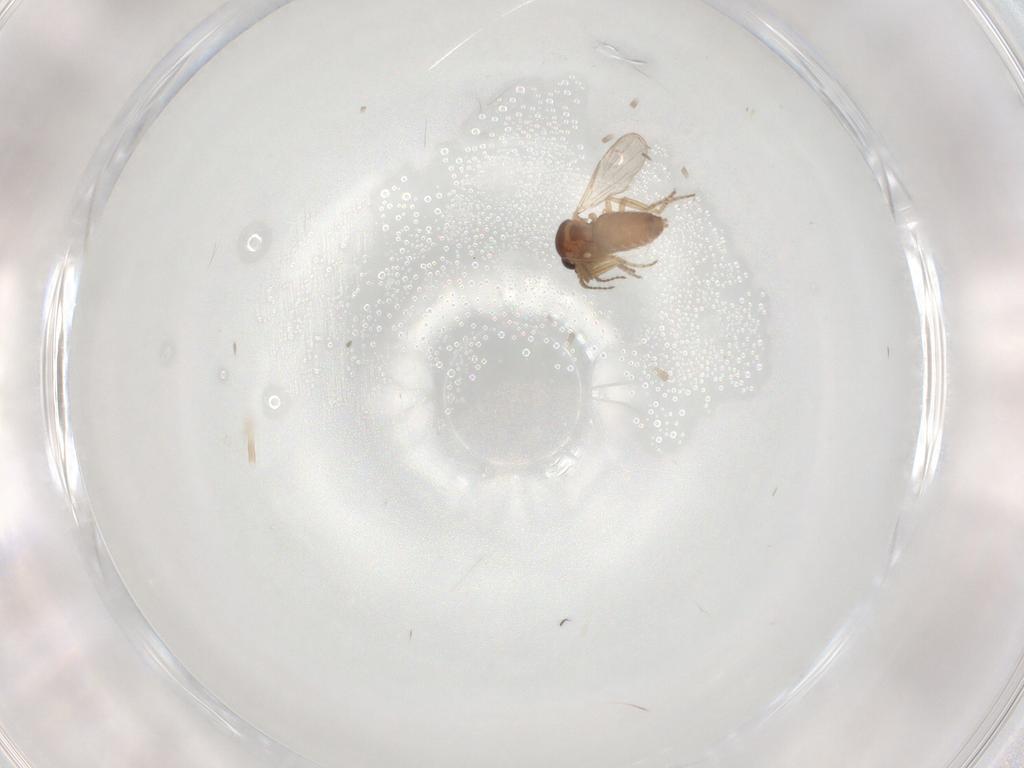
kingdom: Animalia
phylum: Arthropoda
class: Insecta
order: Diptera
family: Ceratopogonidae
